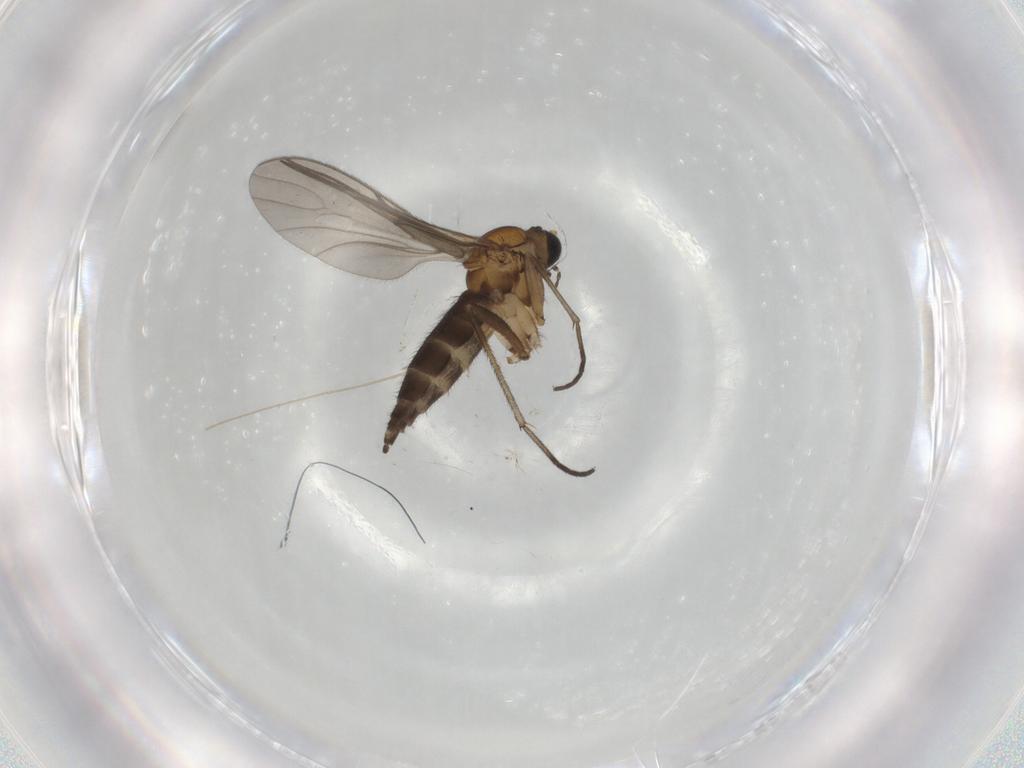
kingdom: Animalia
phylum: Arthropoda
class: Insecta
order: Diptera
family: Sciaridae
